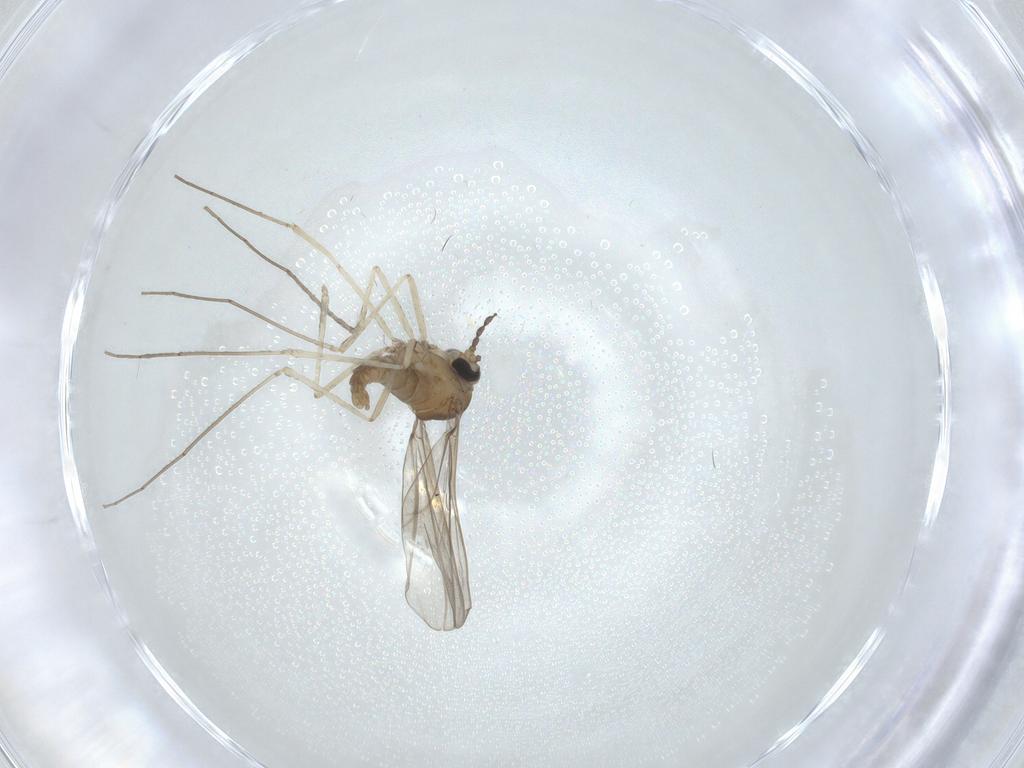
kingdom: Animalia
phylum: Arthropoda
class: Insecta
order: Diptera
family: Cecidomyiidae
